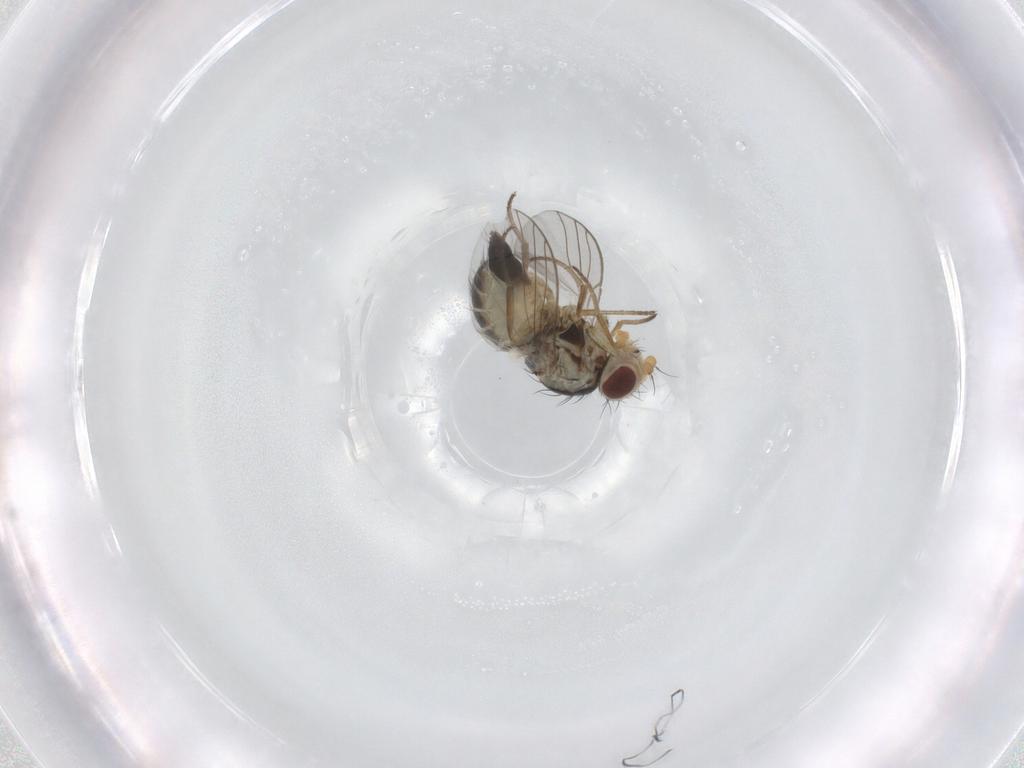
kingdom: Animalia
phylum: Arthropoda
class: Insecta
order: Diptera
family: Agromyzidae
